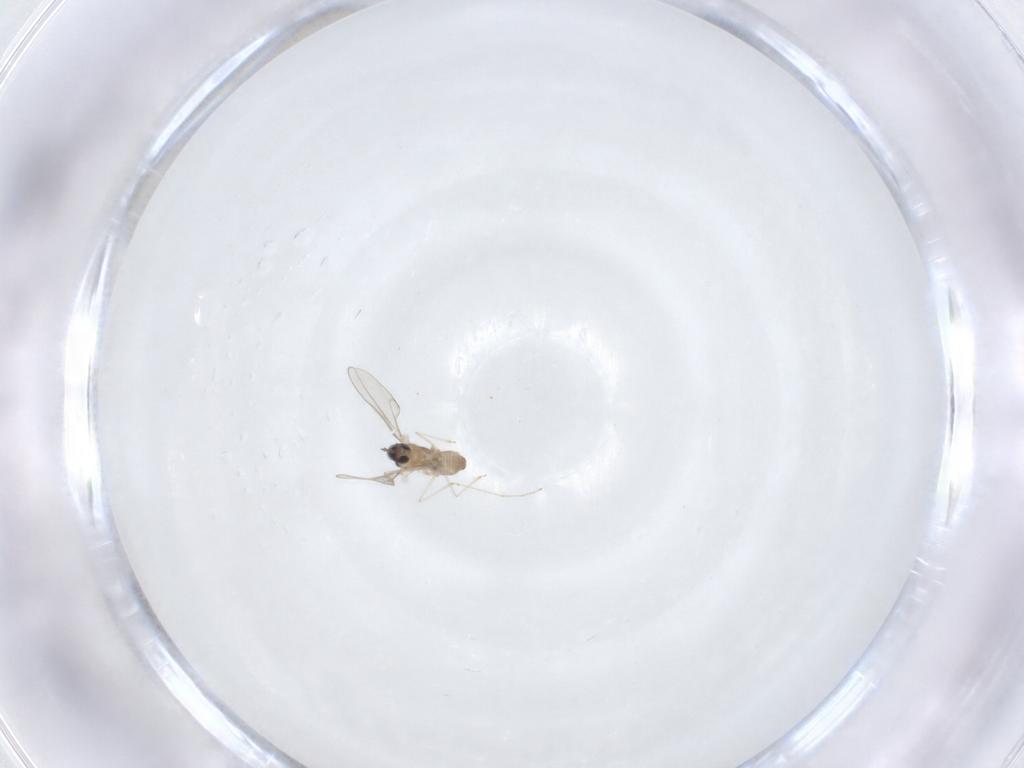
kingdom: Animalia
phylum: Arthropoda
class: Insecta
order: Diptera
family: Cecidomyiidae
